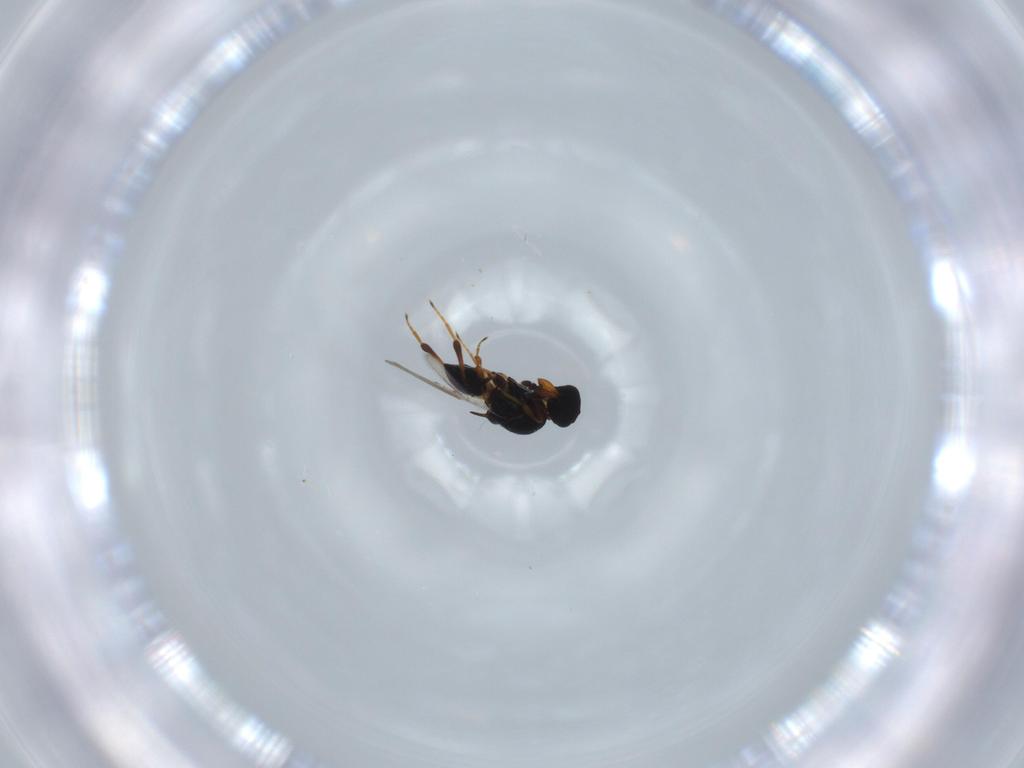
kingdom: Animalia
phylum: Arthropoda
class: Insecta
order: Hymenoptera
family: Platygastridae
